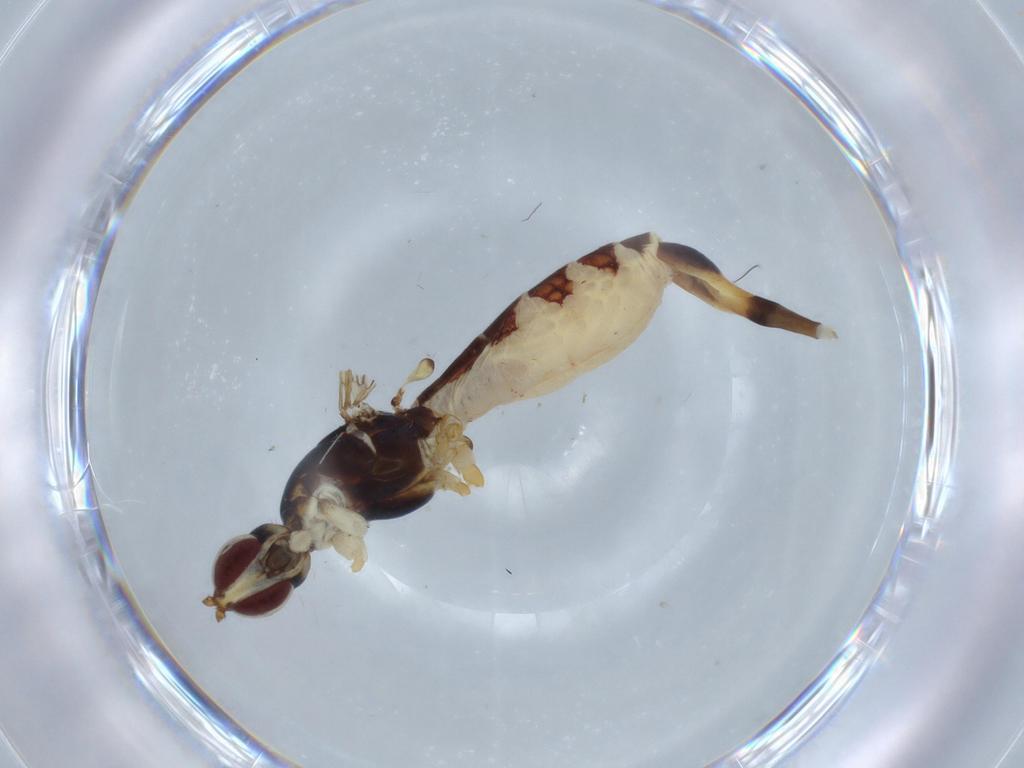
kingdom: Animalia
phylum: Arthropoda
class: Insecta
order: Diptera
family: Micropezidae
